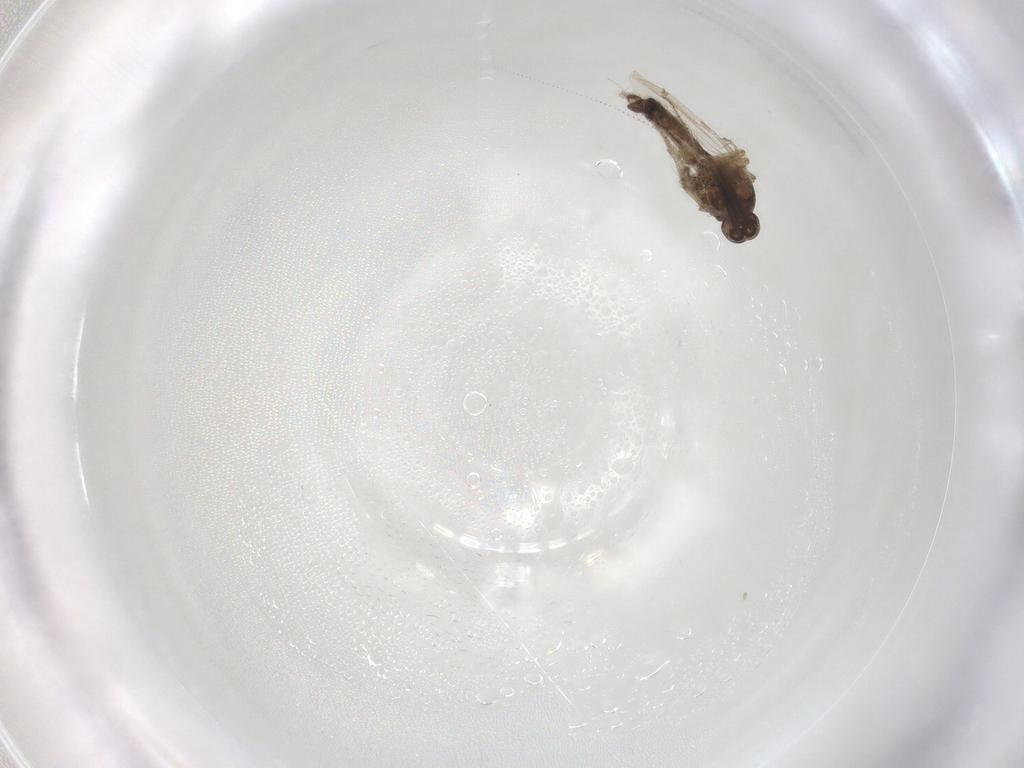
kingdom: Animalia
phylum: Arthropoda
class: Insecta
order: Diptera
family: Ceratopogonidae
